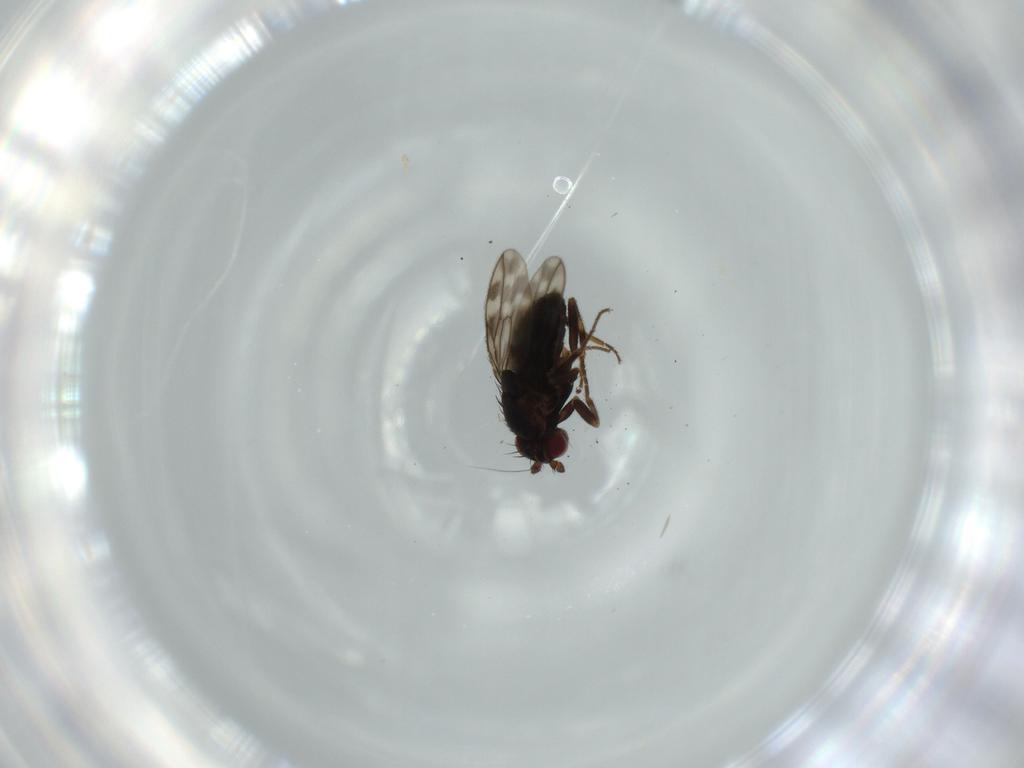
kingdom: Animalia
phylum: Arthropoda
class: Insecta
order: Diptera
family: Sphaeroceridae
